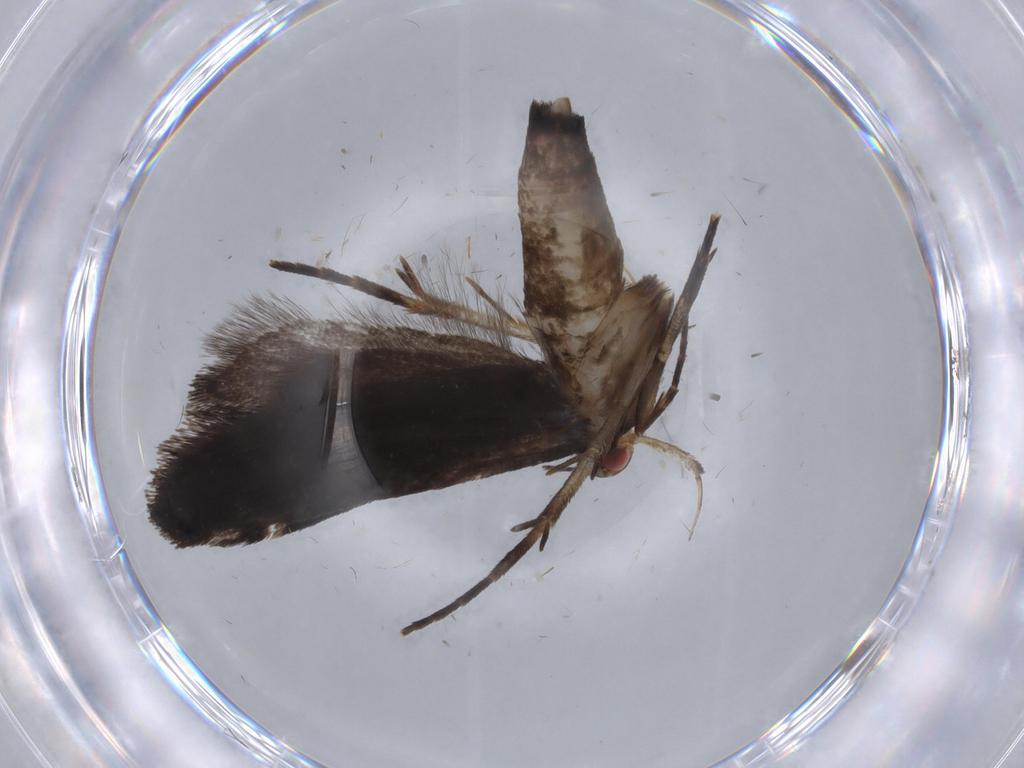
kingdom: Animalia
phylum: Arthropoda
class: Insecta
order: Lepidoptera
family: Gelechiidae
